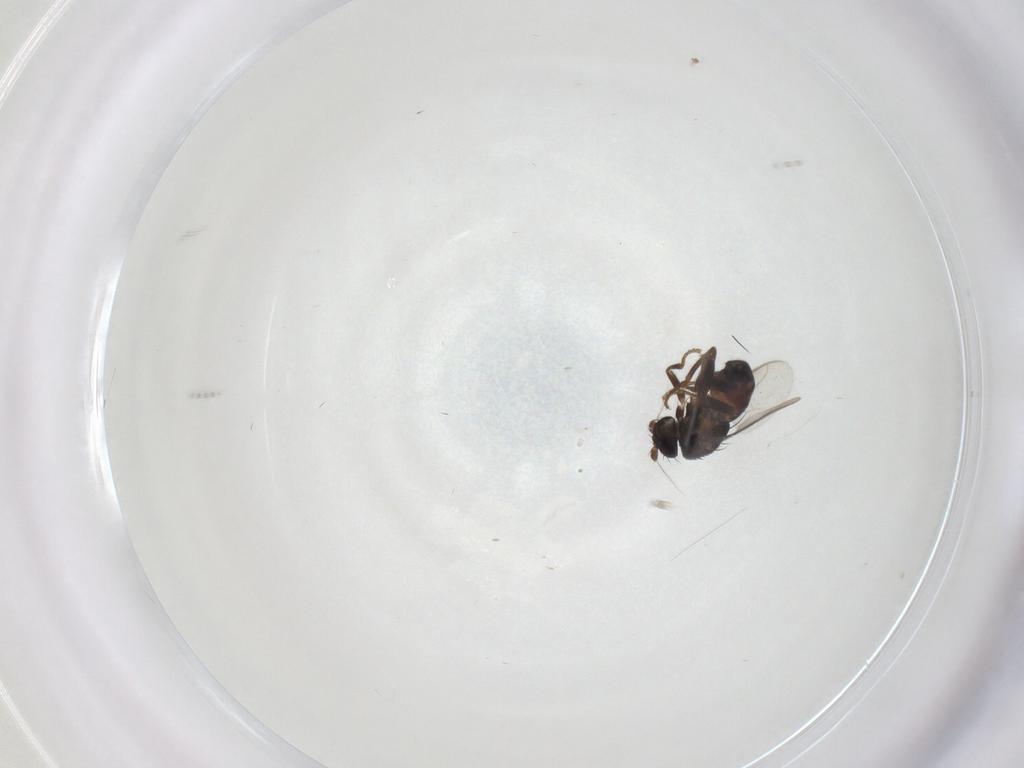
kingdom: Animalia
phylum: Arthropoda
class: Insecta
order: Diptera
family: Sphaeroceridae
